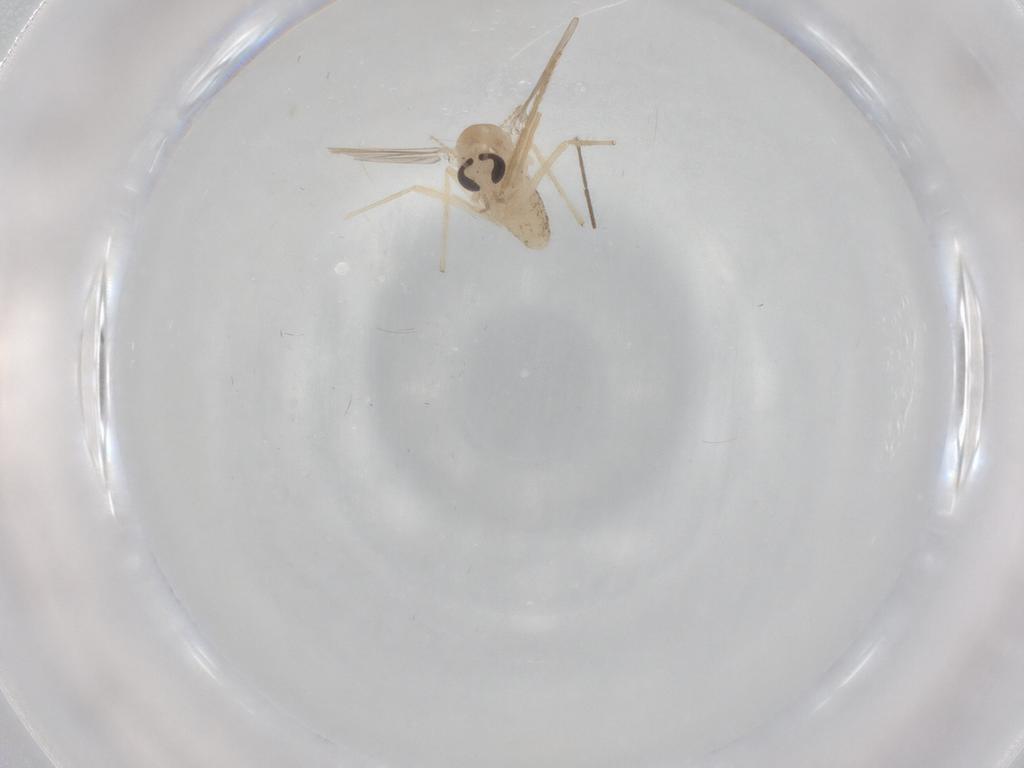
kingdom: Animalia
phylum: Arthropoda
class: Insecta
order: Diptera
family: Chironomidae
